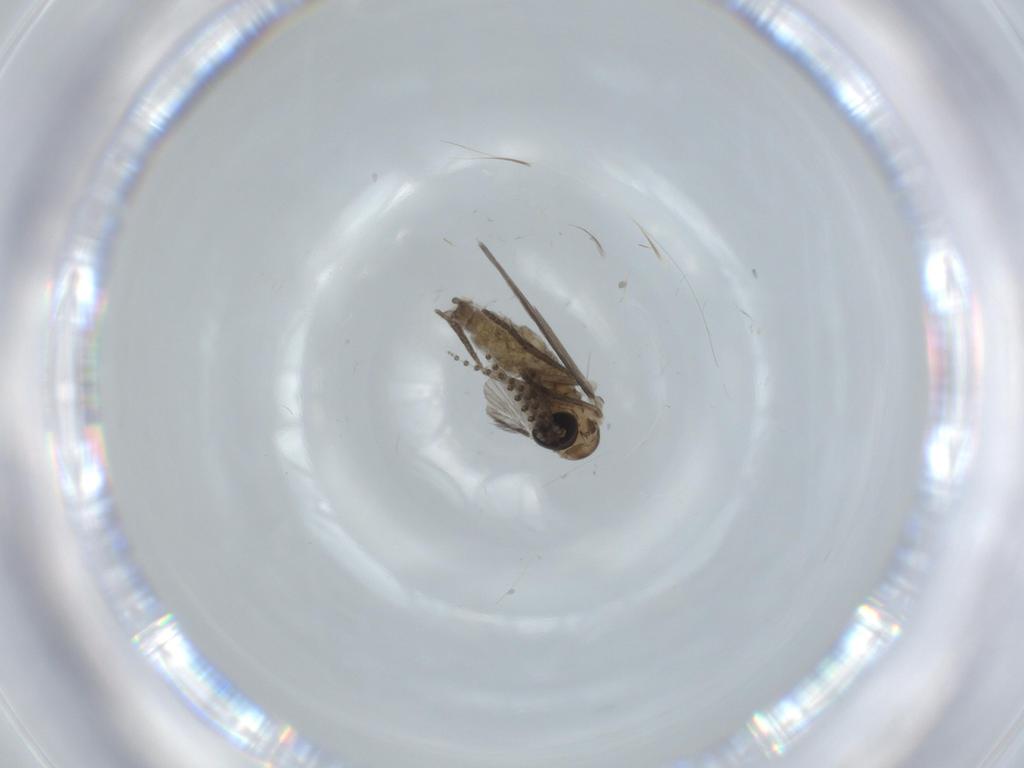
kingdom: Animalia
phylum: Arthropoda
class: Insecta
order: Diptera
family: Psychodidae
